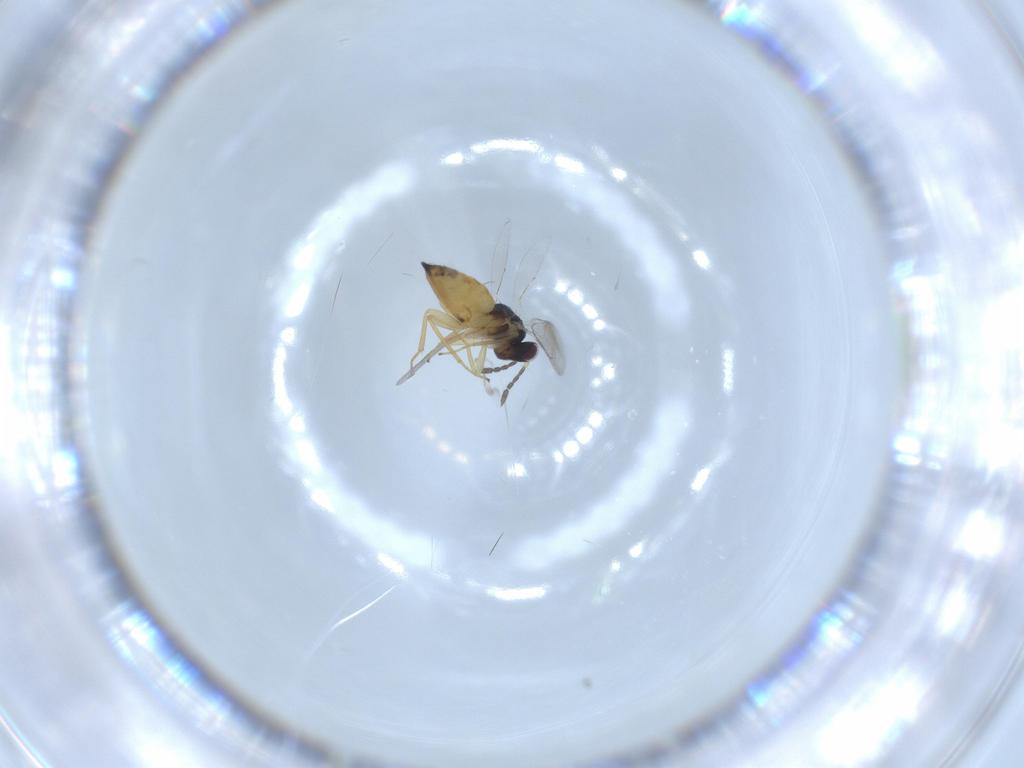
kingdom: Animalia
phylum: Arthropoda
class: Insecta
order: Hymenoptera
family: Eulophidae
